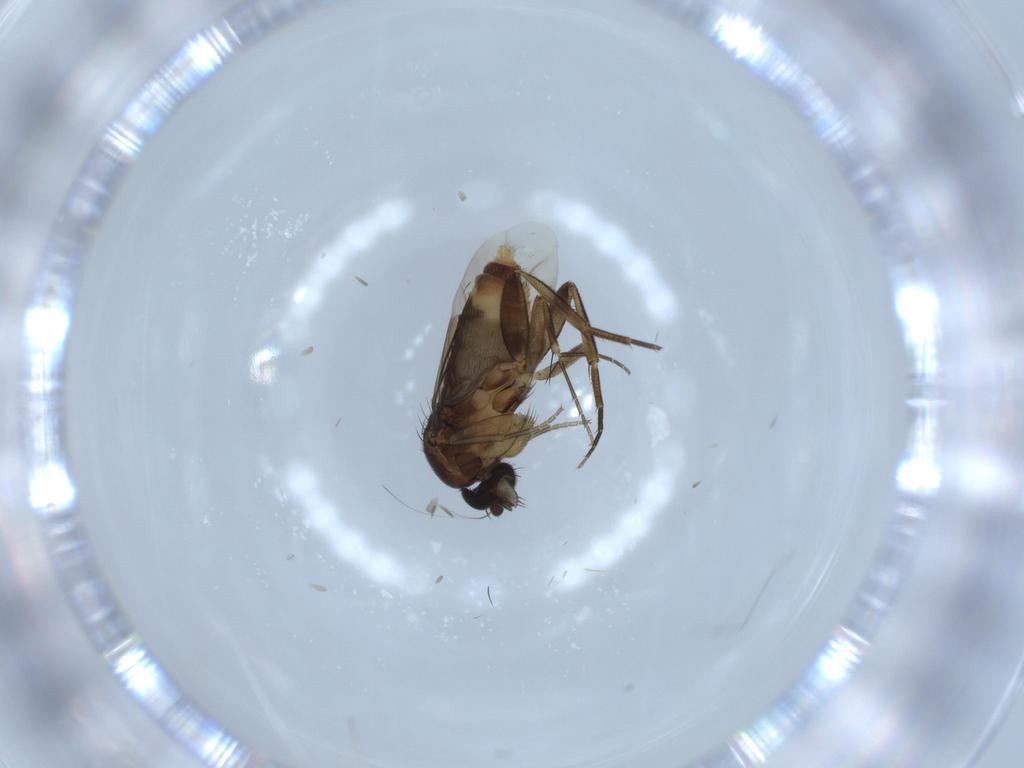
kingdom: Animalia
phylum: Arthropoda
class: Insecta
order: Diptera
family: Phoridae
